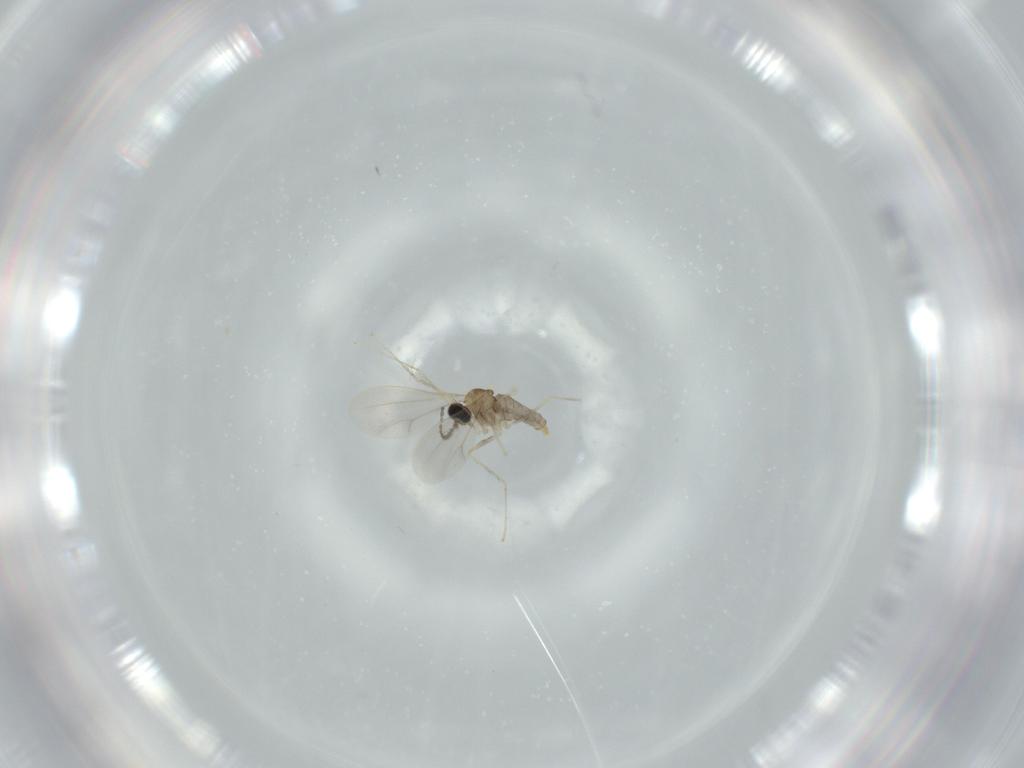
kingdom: Animalia
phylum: Arthropoda
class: Insecta
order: Diptera
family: Cecidomyiidae
